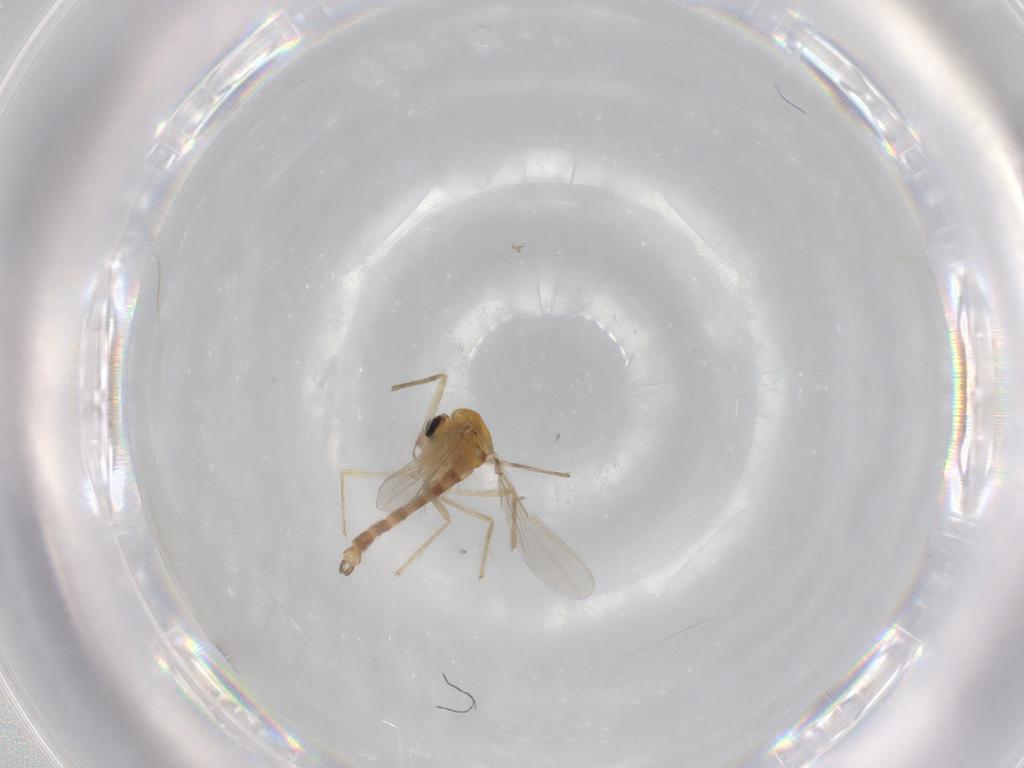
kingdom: Animalia
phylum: Arthropoda
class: Insecta
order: Diptera
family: Chironomidae
